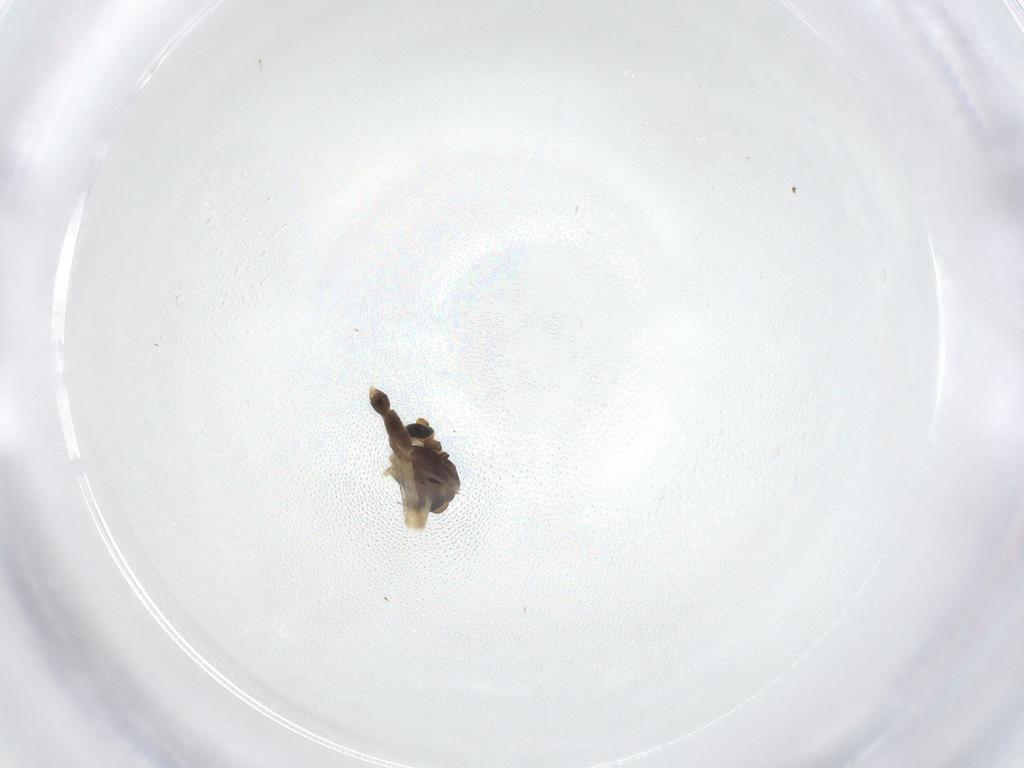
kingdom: Animalia
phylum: Arthropoda
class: Insecta
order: Diptera
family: Chironomidae
